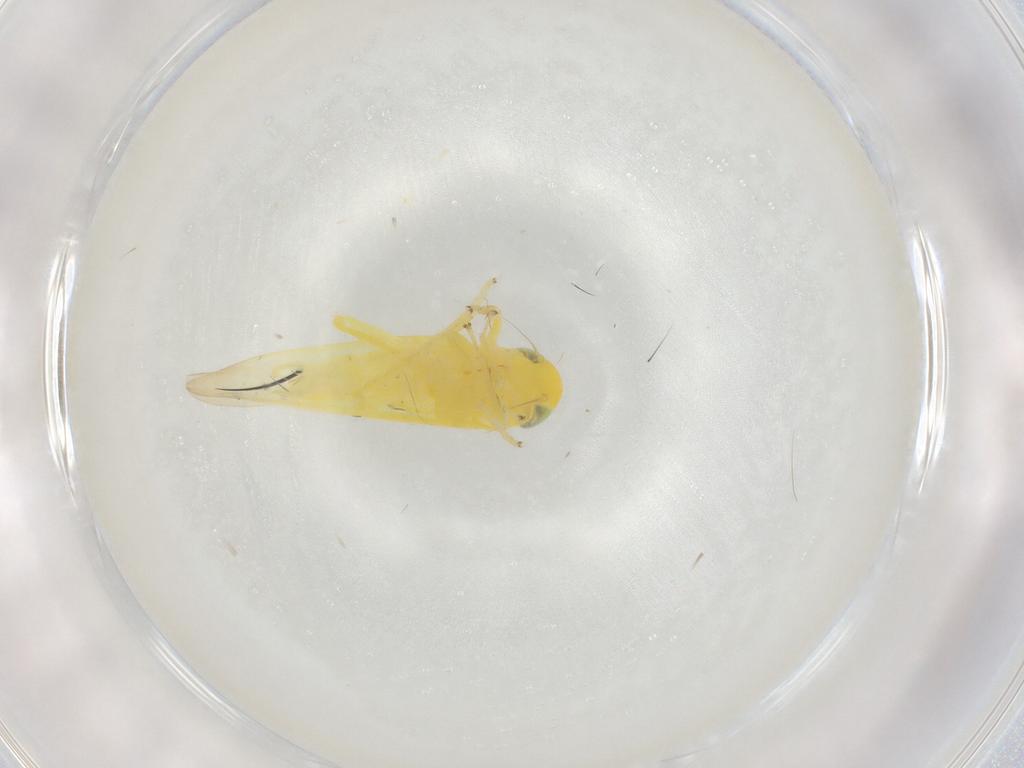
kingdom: Animalia
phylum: Arthropoda
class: Insecta
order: Hemiptera
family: Cicadellidae
